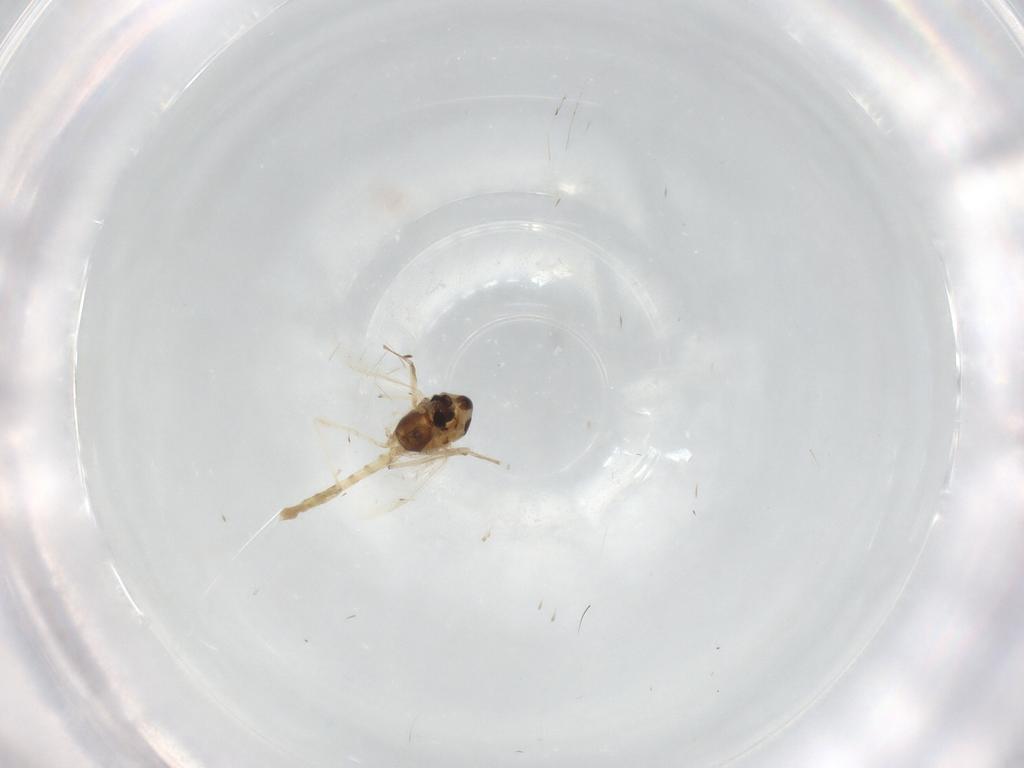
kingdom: Animalia
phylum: Arthropoda
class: Insecta
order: Diptera
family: Chironomidae
